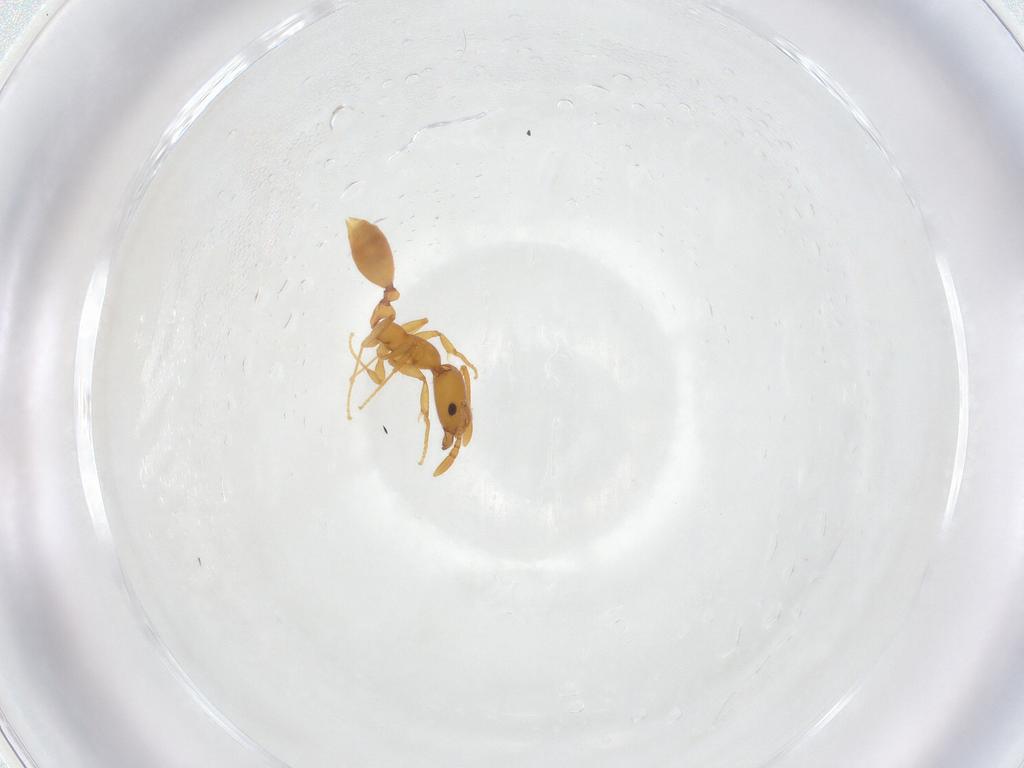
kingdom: Animalia
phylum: Arthropoda
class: Insecta
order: Hymenoptera
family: Formicidae
